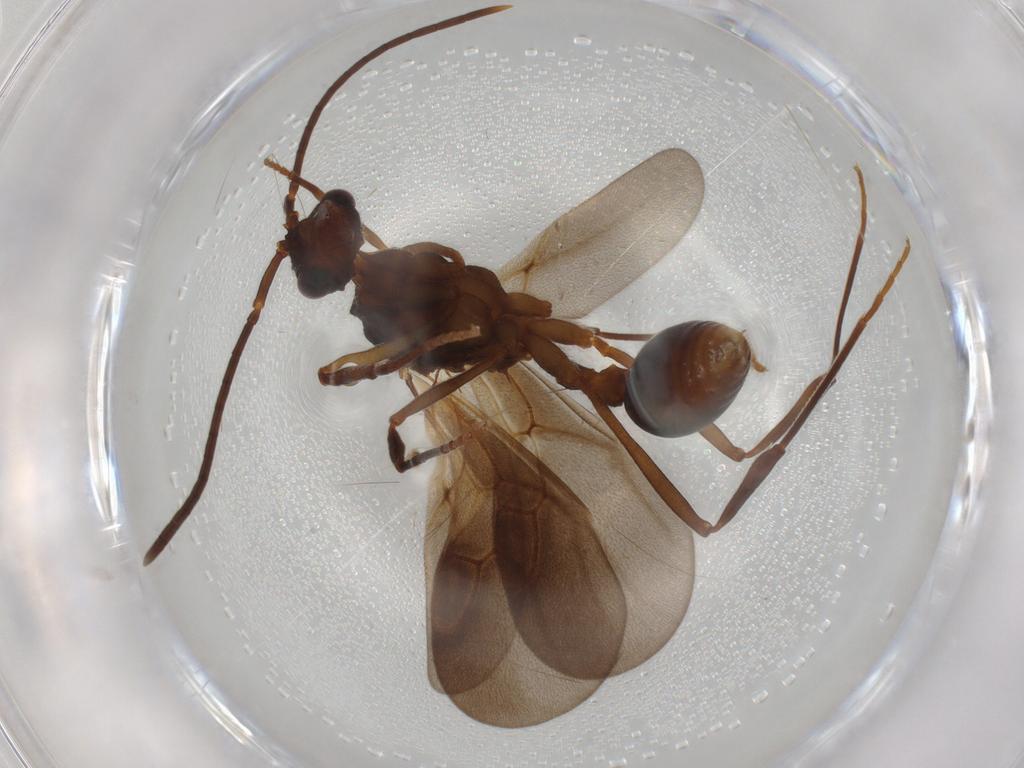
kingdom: Animalia
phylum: Arthropoda
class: Insecta
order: Hymenoptera
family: Formicidae
